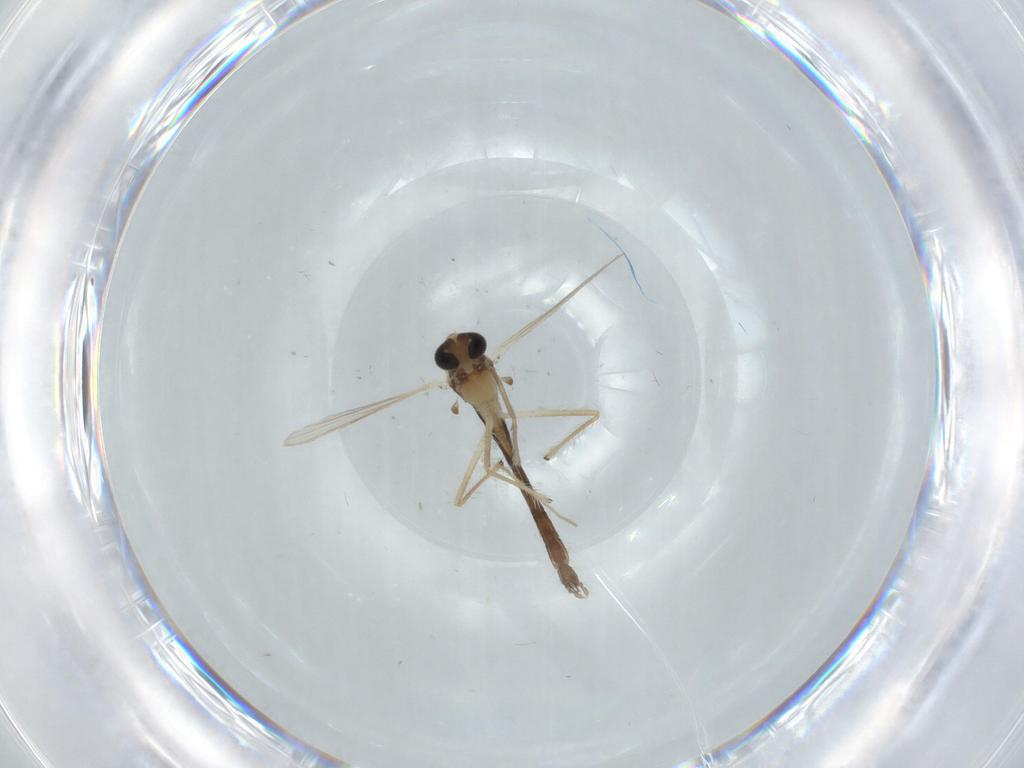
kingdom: Animalia
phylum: Arthropoda
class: Insecta
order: Diptera
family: Chironomidae
